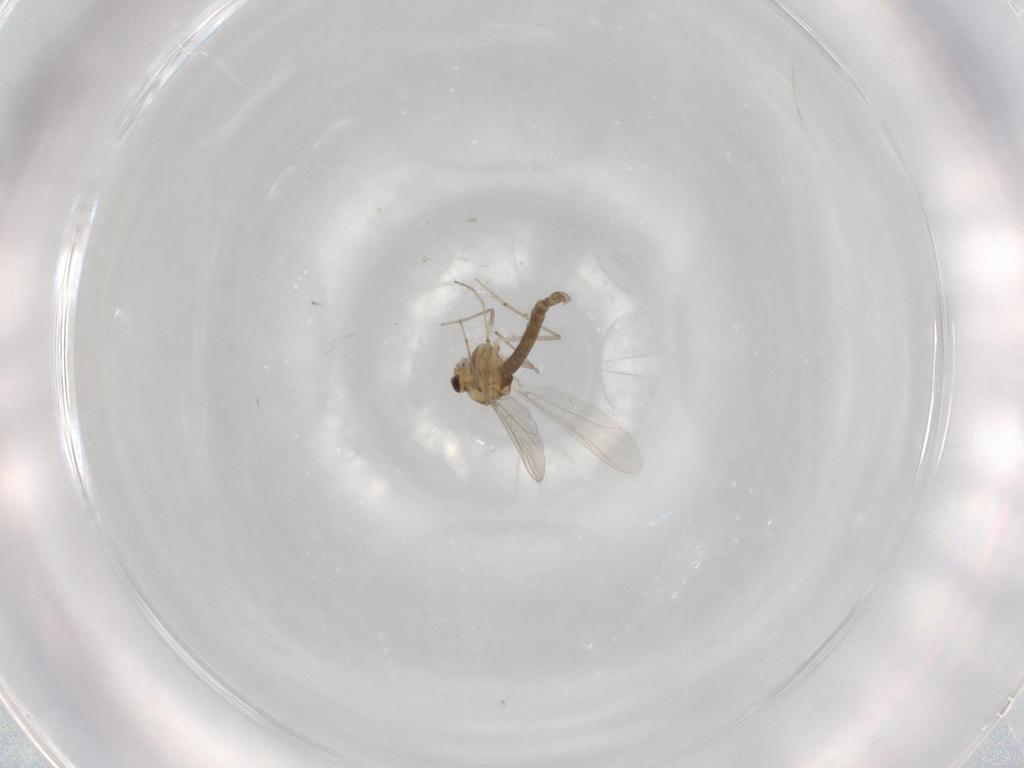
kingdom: Animalia
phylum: Arthropoda
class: Insecta
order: Diptera
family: Chironomidae
